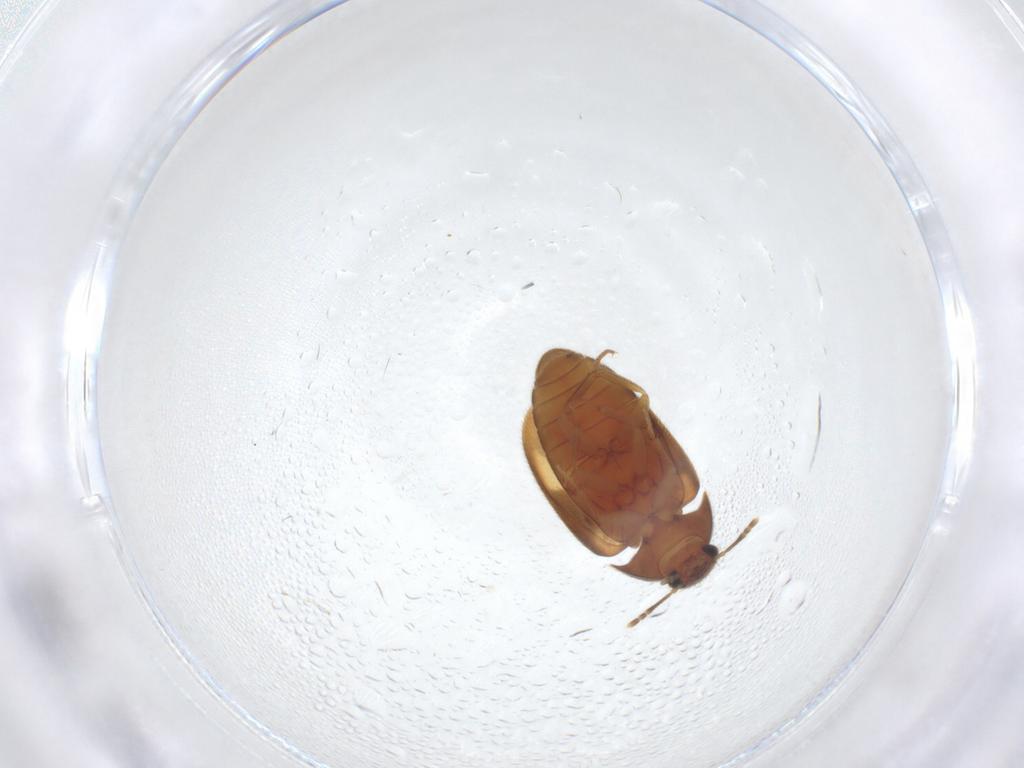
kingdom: Animalia
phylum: Arthropoda
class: Insecta
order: Coleoptera
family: Mycetophagidae
